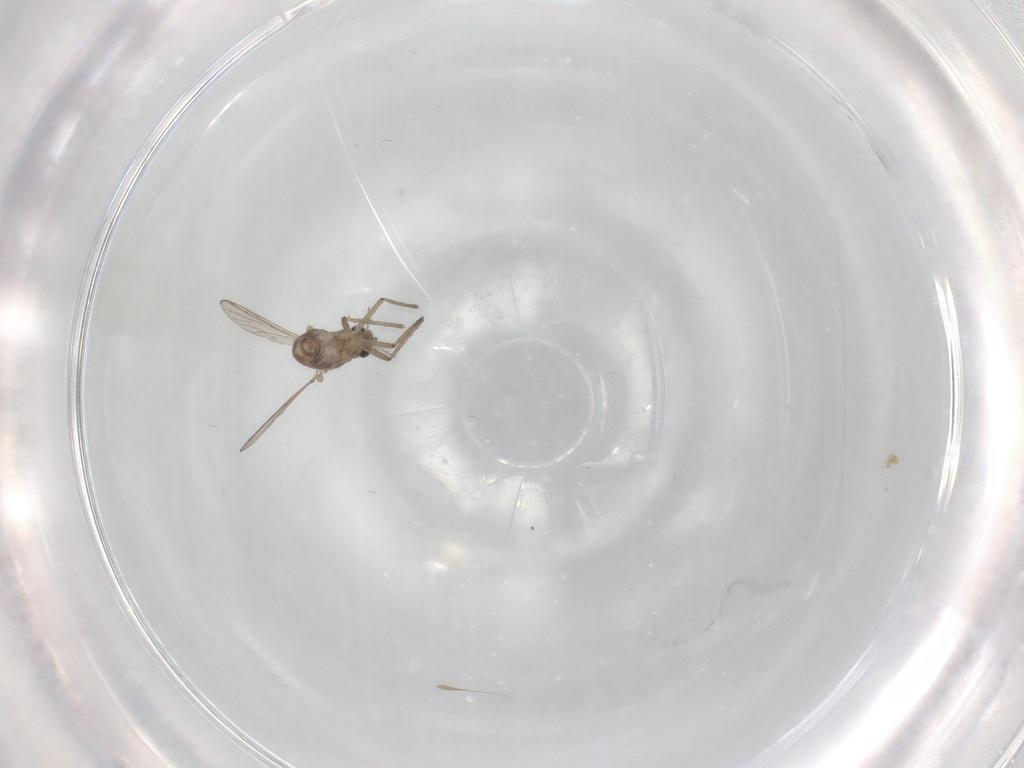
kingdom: Animalia
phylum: Arthropoda
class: Insecta
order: Diptera
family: Chironomidae
